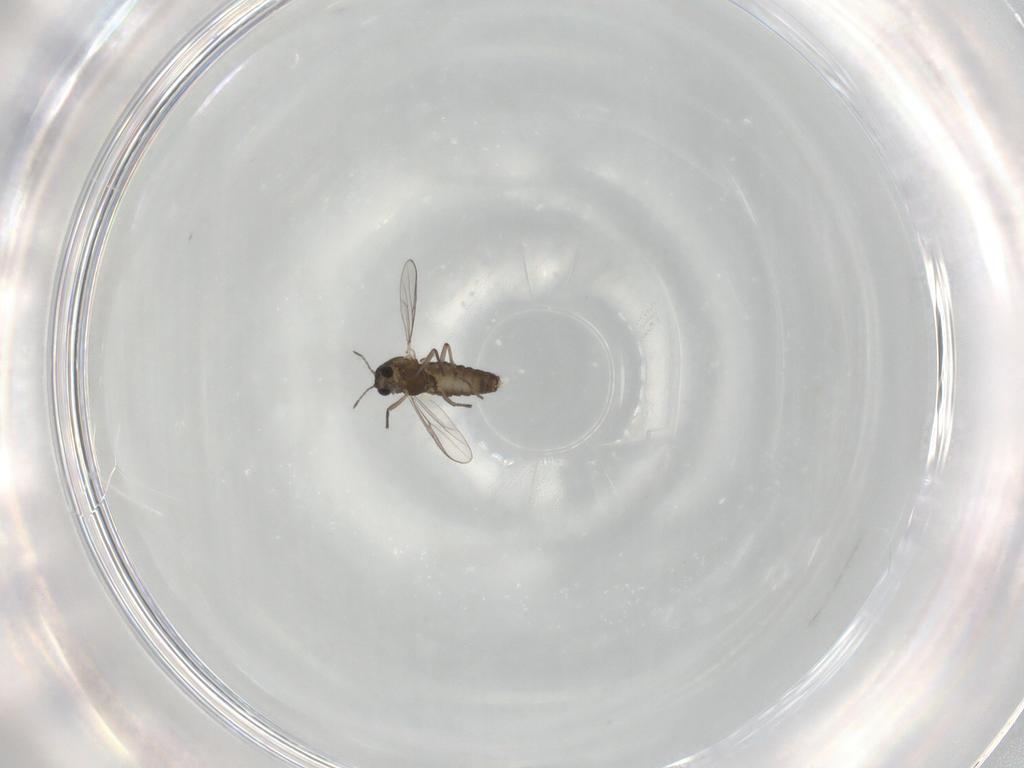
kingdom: Animalia
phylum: Arthropoda
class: Insecta
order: Diptera
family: Chironomidae
